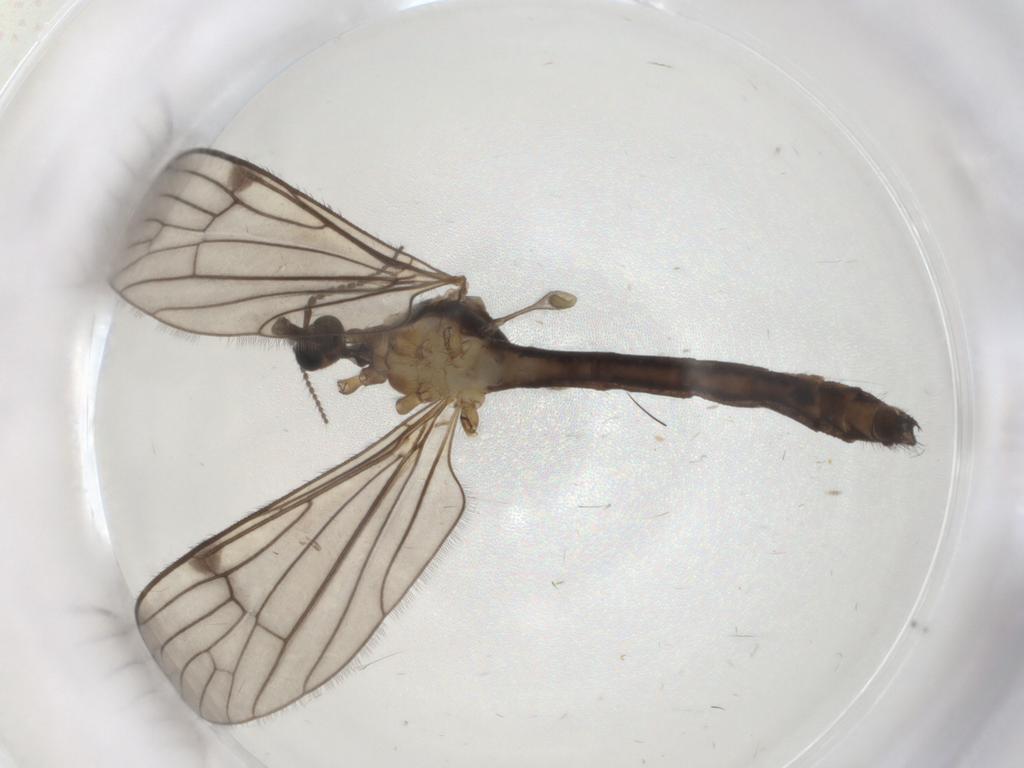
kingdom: Animalia
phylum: Arthropoda
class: Insecta
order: Diptera
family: Limoniidae
